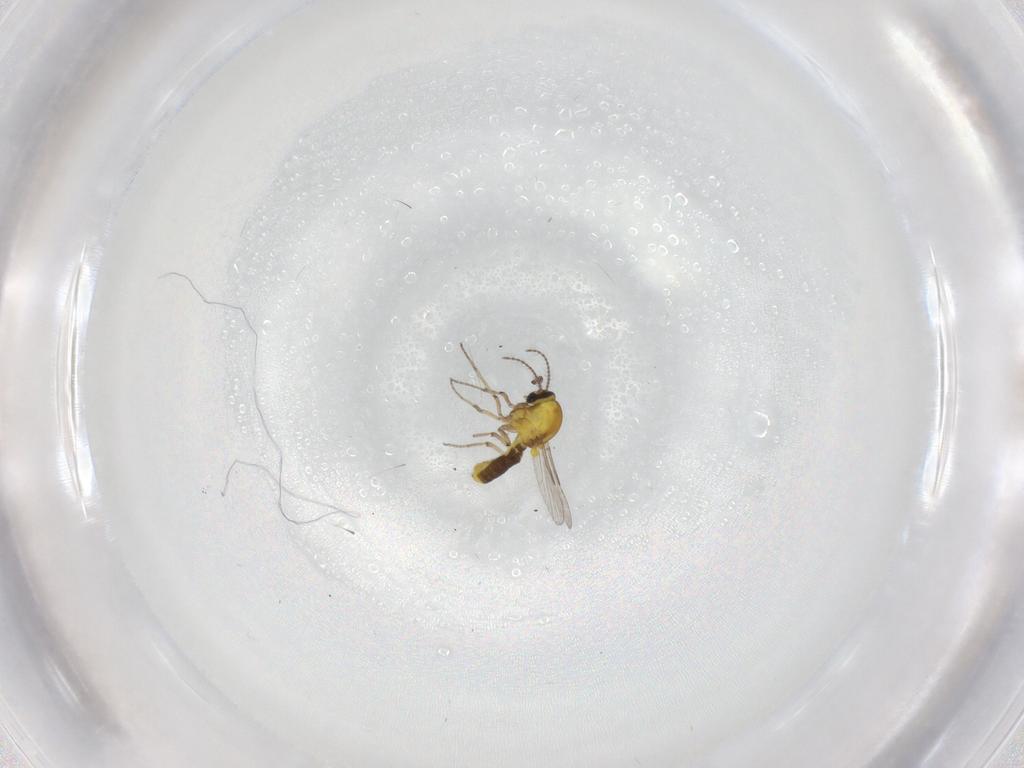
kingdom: Animalia
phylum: Arthropoda
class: Insecta
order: Diptera
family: Ceratopogonidae
